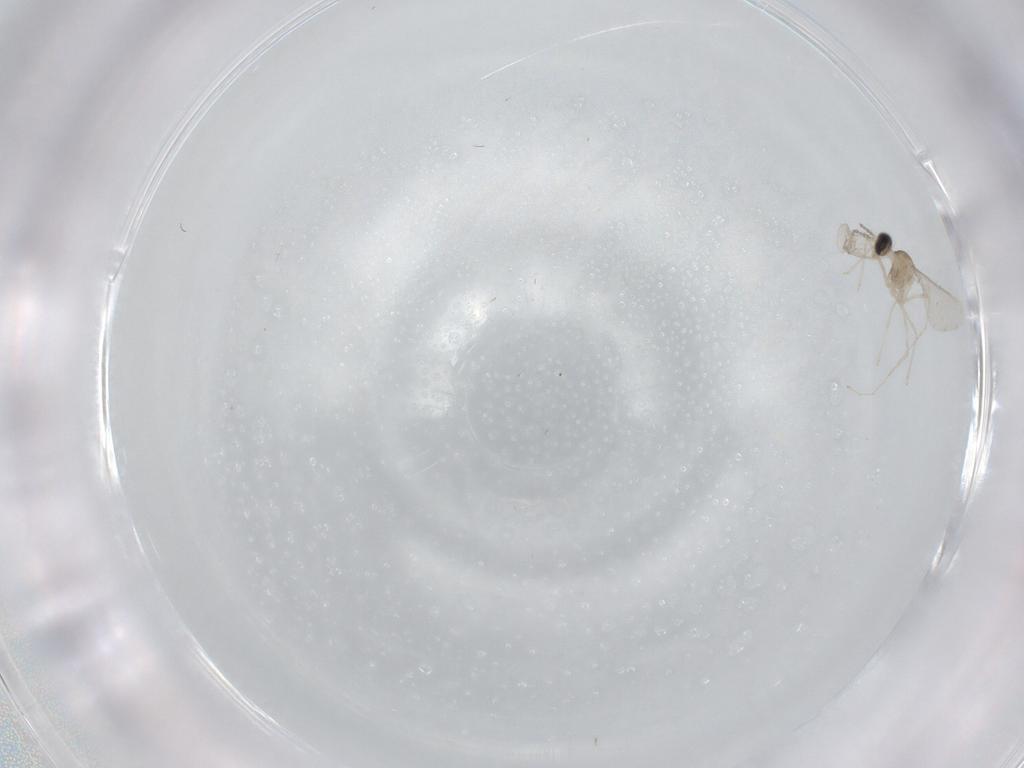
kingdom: Animalia
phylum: Arthropoda
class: Insecta
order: Diptera
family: Cecidomyiidae
